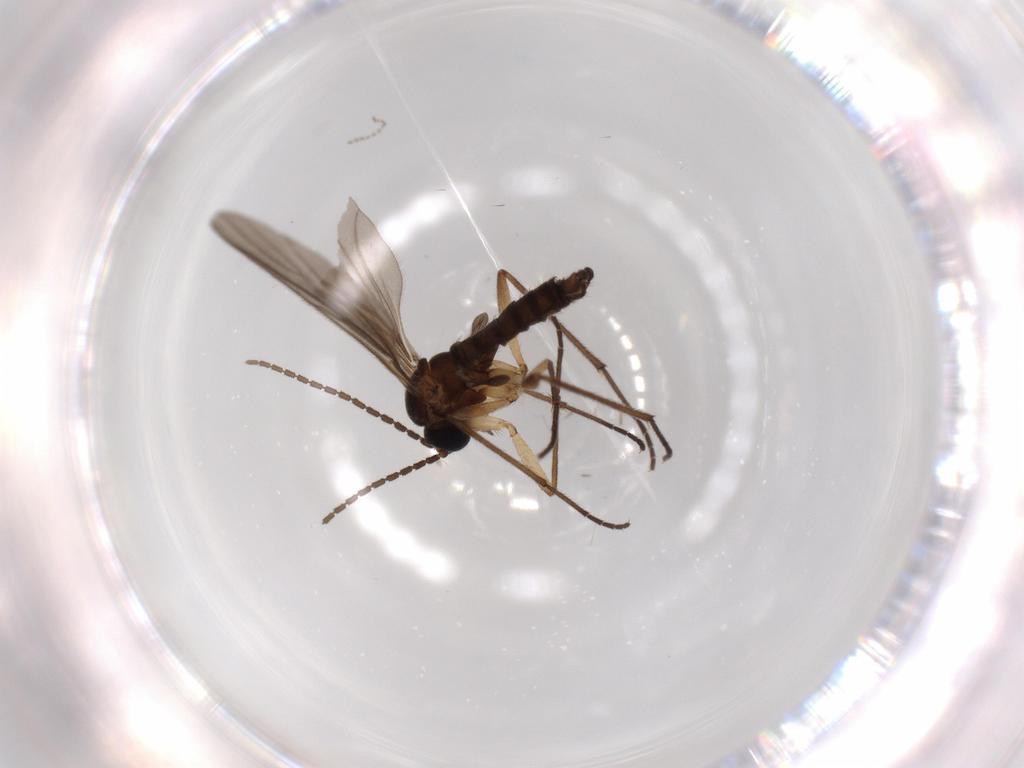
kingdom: Animalia
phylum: Arthropoda
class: Insecta
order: Diptera
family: Sciaridae
